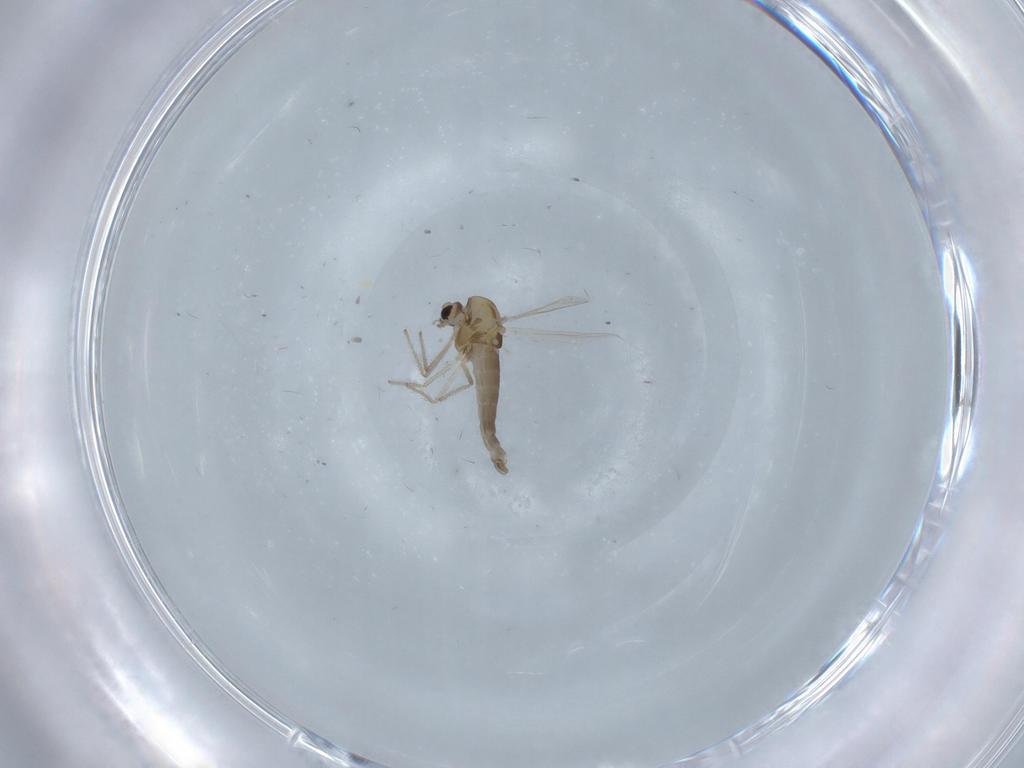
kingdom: Animalia
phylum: Arthropoda
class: Insecta
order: Diptera
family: Chironomidae
